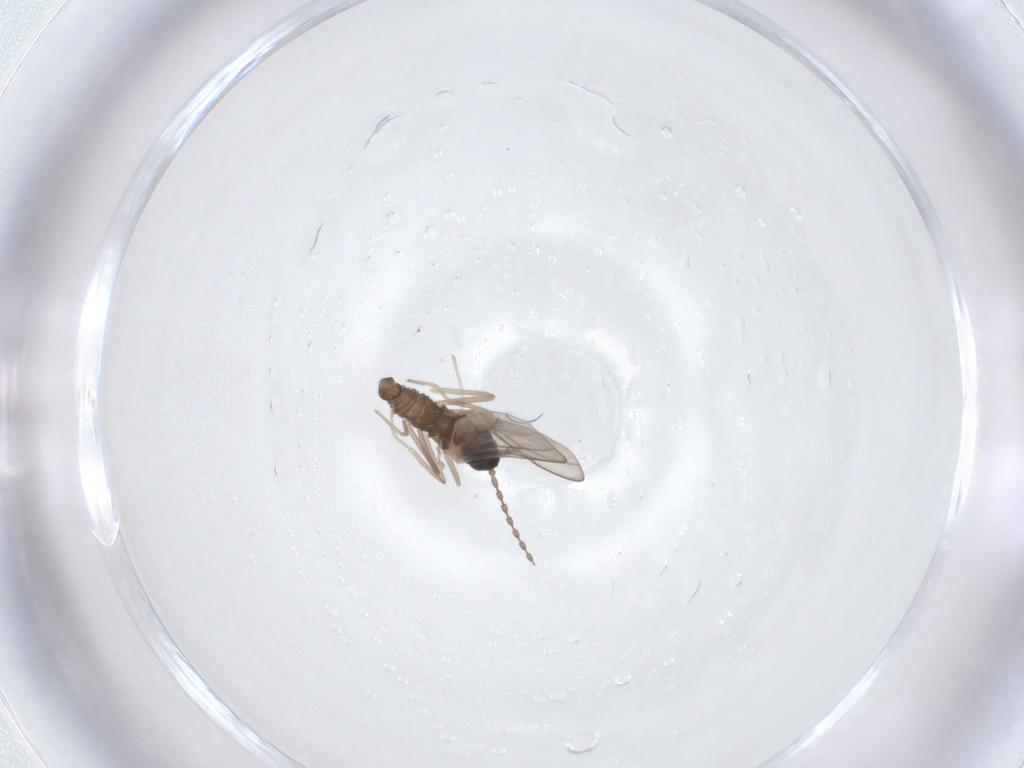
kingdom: Animalia
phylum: Arthropoda
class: Insecta
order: Diptera
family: Cecidomyiidae
